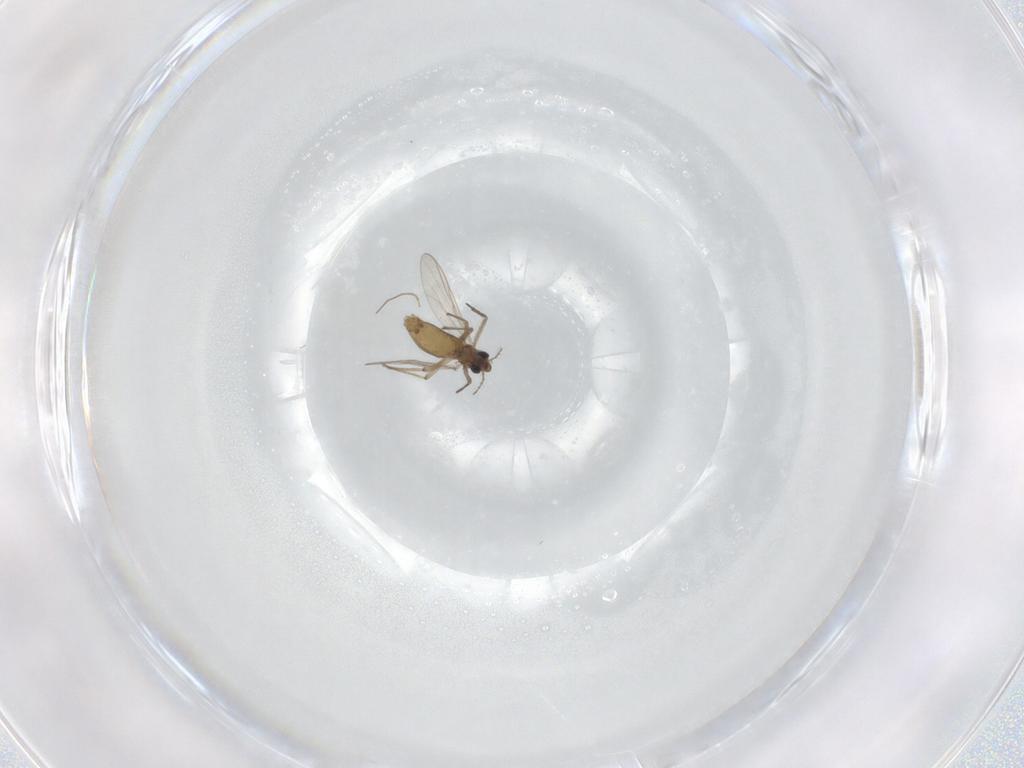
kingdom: Animalia
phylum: Arthropoda
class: Insecta
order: Diptera
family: Chironomidae
